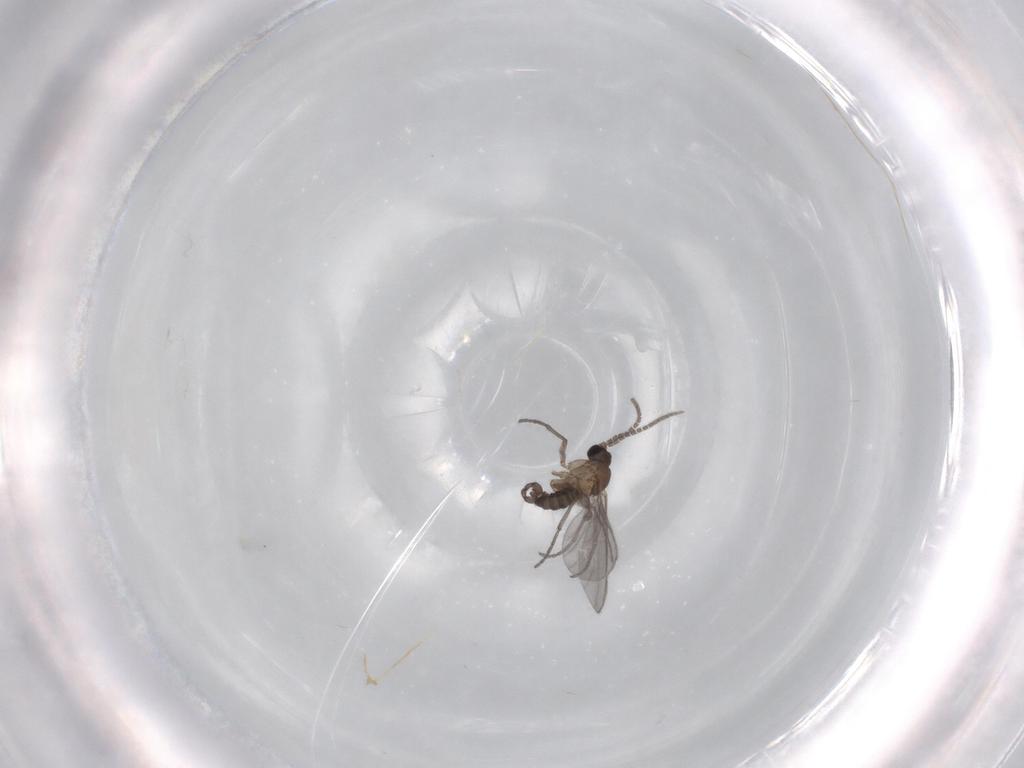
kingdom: Animalia
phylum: Arthropoda
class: Insecta
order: Diptera
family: Sciaridae
